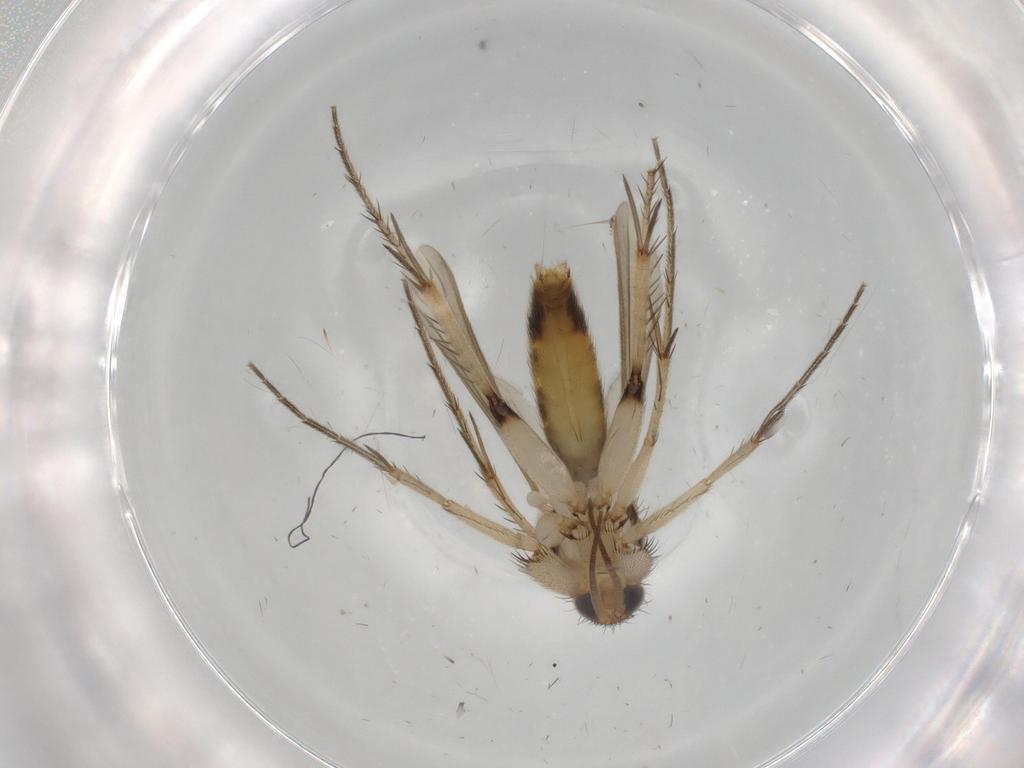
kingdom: Animalia
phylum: Arthropoda
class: Insecta
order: Diptera
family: Mycetophilidae
